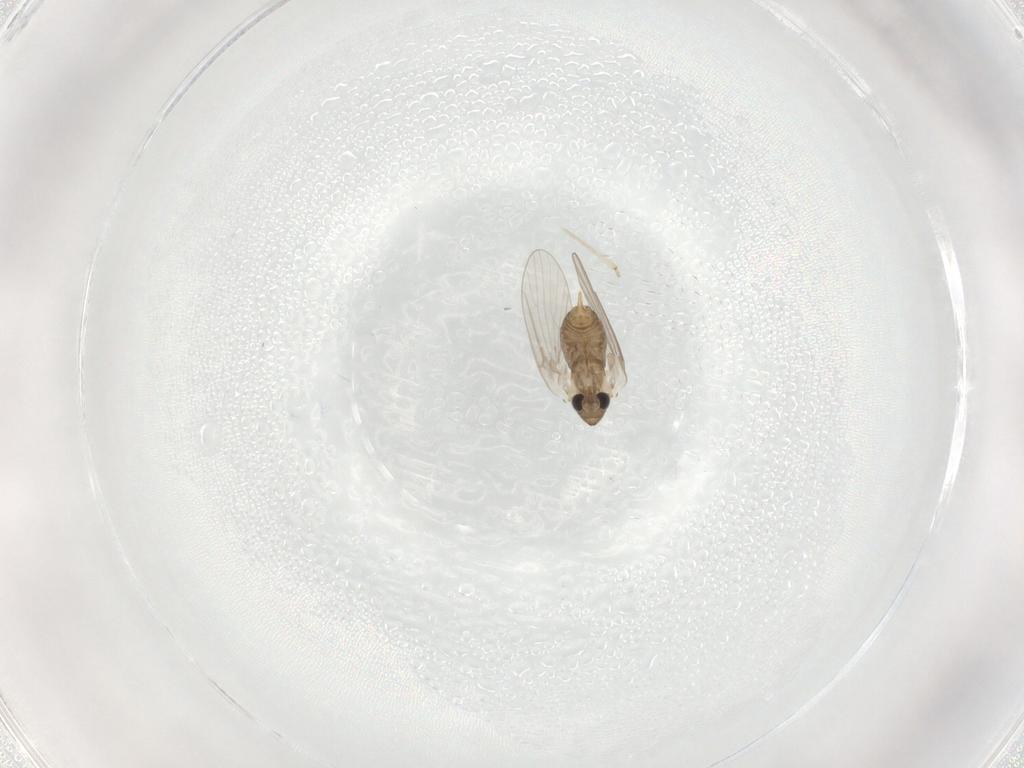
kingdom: Animalia
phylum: Arthropoda
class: Insecta
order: Diptera
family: Psychodidae
